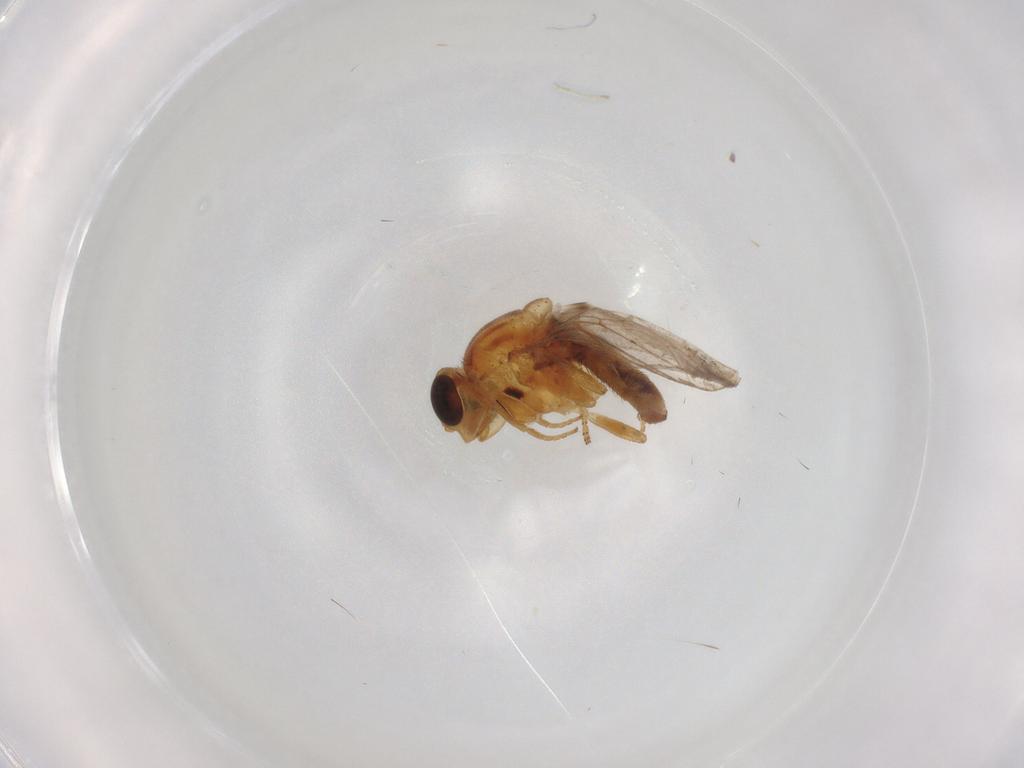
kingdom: Animalia
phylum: Arthropoda
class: Insecta
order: Diptera
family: Chloropidae
